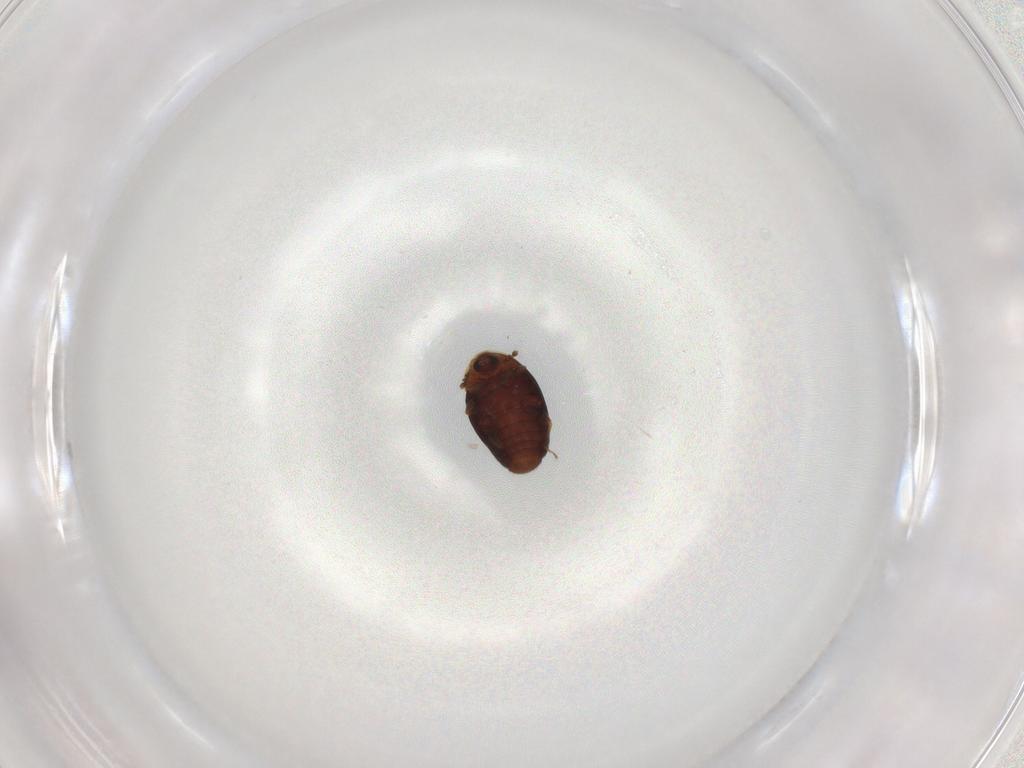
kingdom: Animalia
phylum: Arthropoda
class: Insecta
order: Coleoptera
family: Corylophidae
